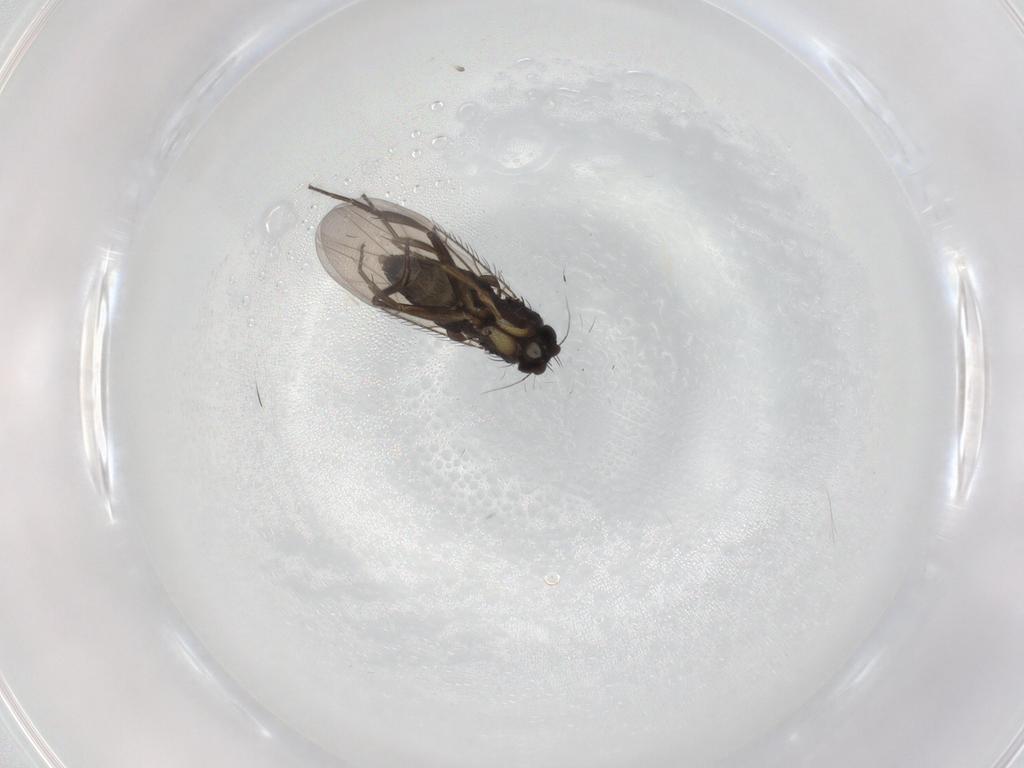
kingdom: Animalia
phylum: Arthropoda
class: Insecta
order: Diptera
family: Phoridae
